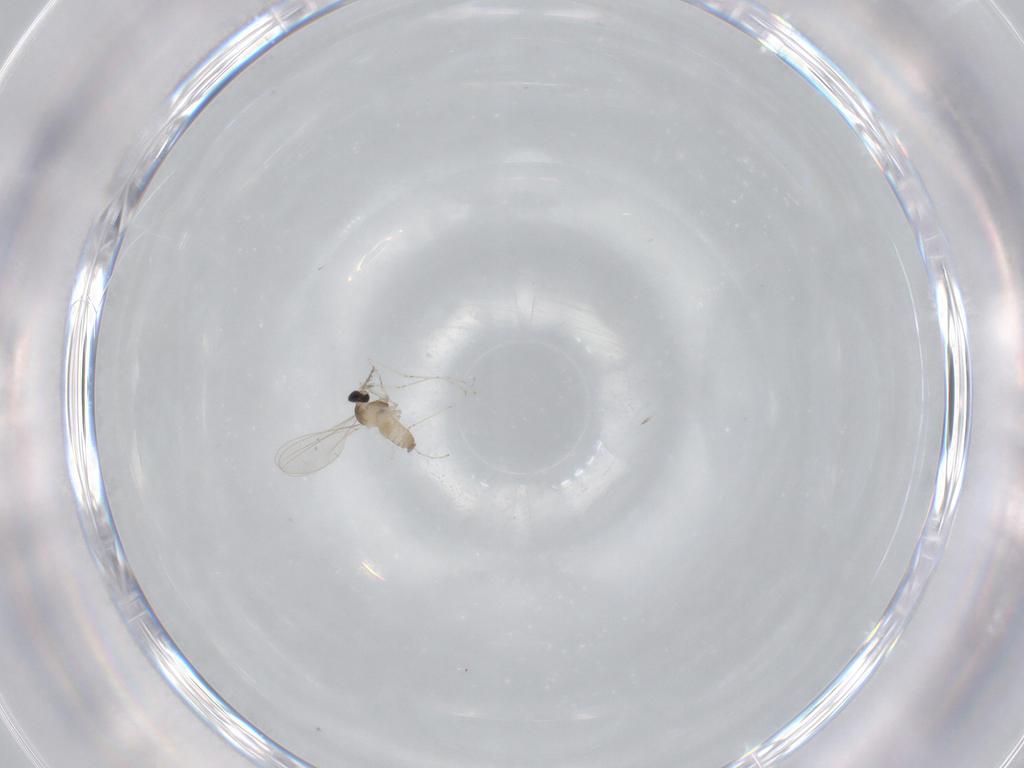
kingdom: Animalia
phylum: Arthropoda
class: Insecta
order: Diptera
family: Cecidomyiidae
